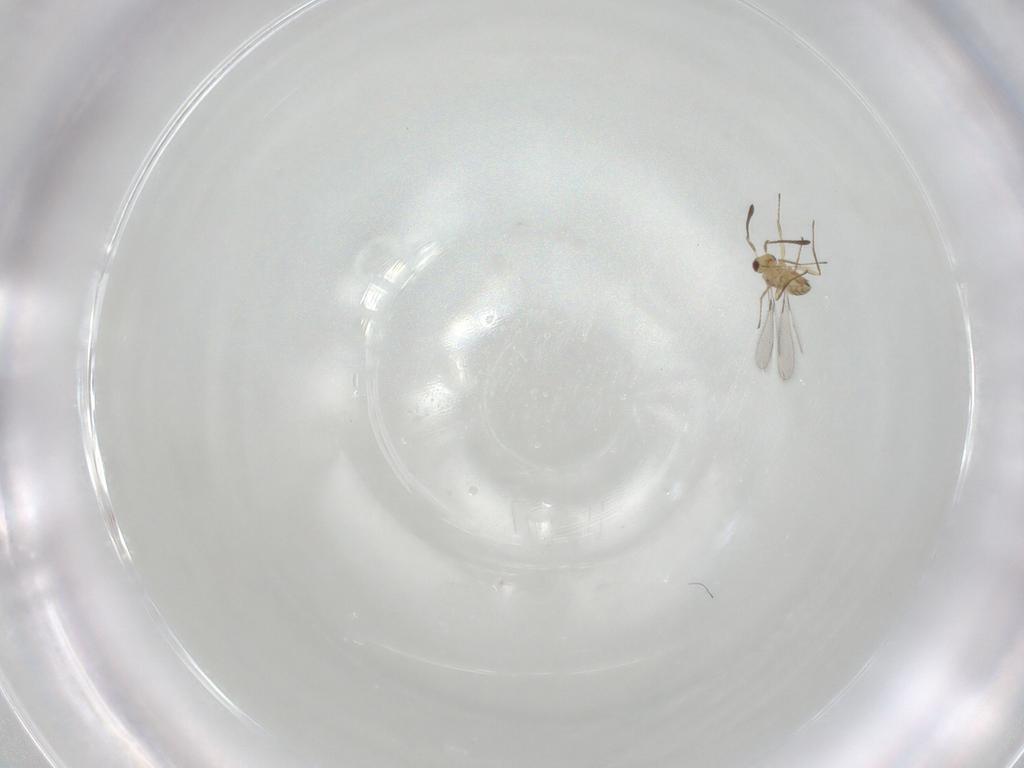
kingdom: Animalia
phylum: Arthropoda
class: Insecta
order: Hymenoptera
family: Mymaridae
